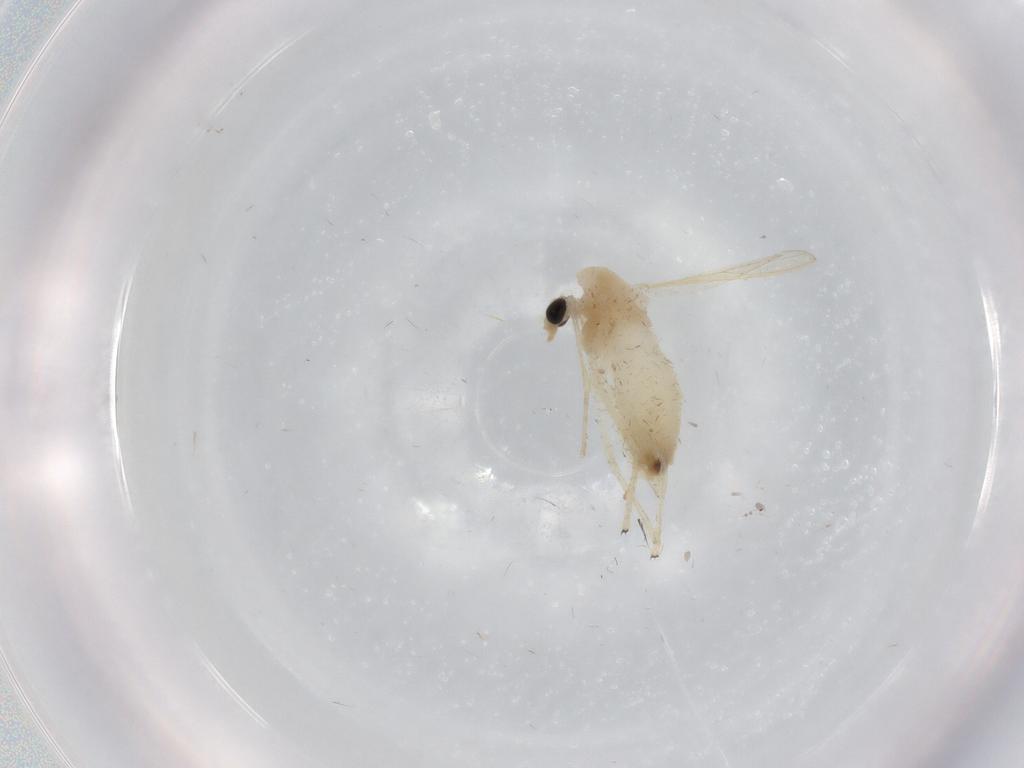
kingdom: Animalia
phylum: Arthropoda
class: Insecta
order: Diptera
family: Chironomidae
